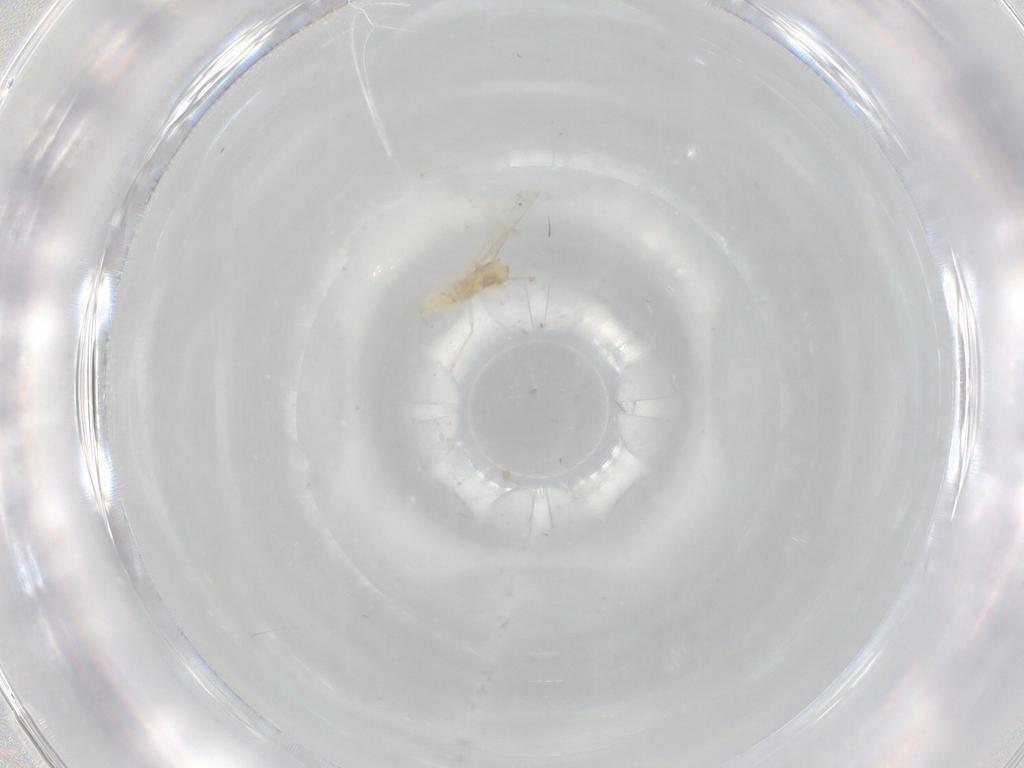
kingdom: Animalia
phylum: Arthropoda
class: Insecta
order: Diptera
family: Cecidomyiidae
